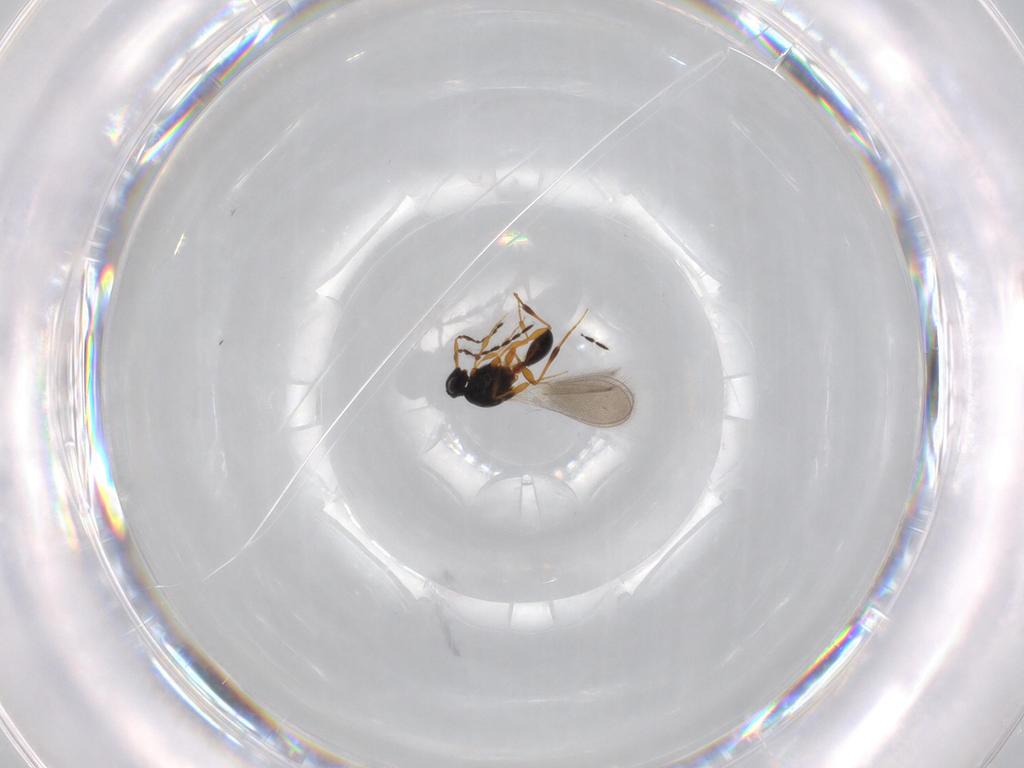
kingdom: Animalia
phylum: Arthropoda
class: Insecta
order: Hymenoptera
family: Platygastridae
